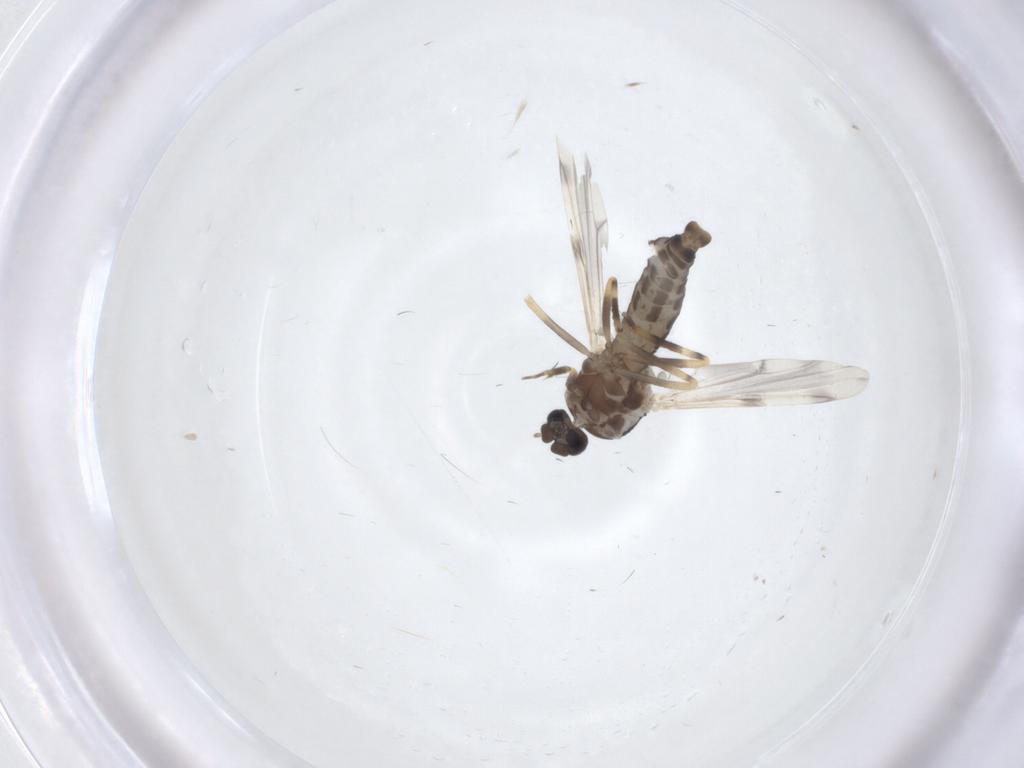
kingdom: Animalia
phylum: Arthropoda
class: Insecta
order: Diptera
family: Ceratopogonidae
